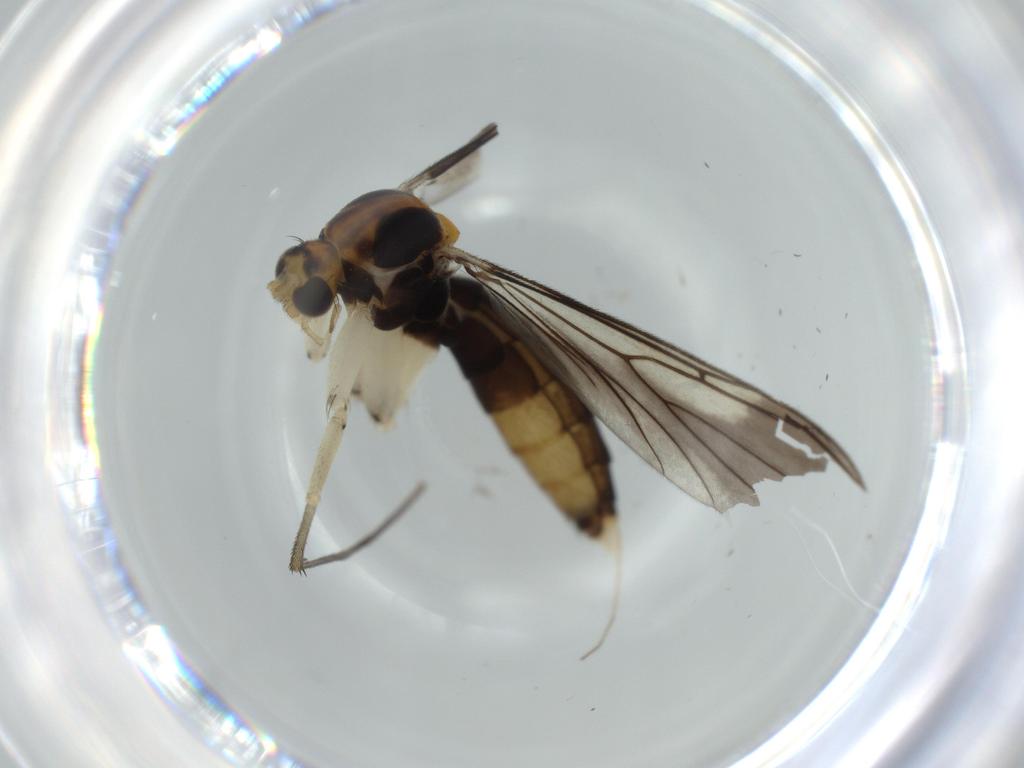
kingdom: Animalia
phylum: Arthropoda
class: Insecta
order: Diptera
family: Mycetophilidae
